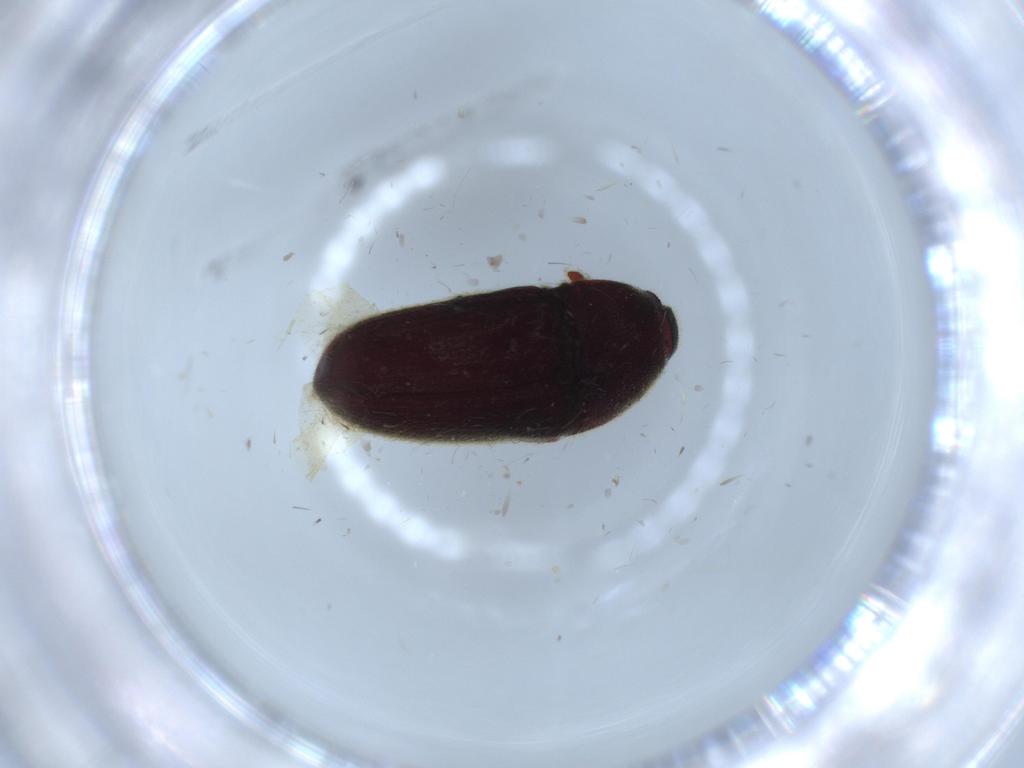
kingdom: Animalia
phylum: Arthropoda
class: Insecta
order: Coleoptera
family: Throscidae
